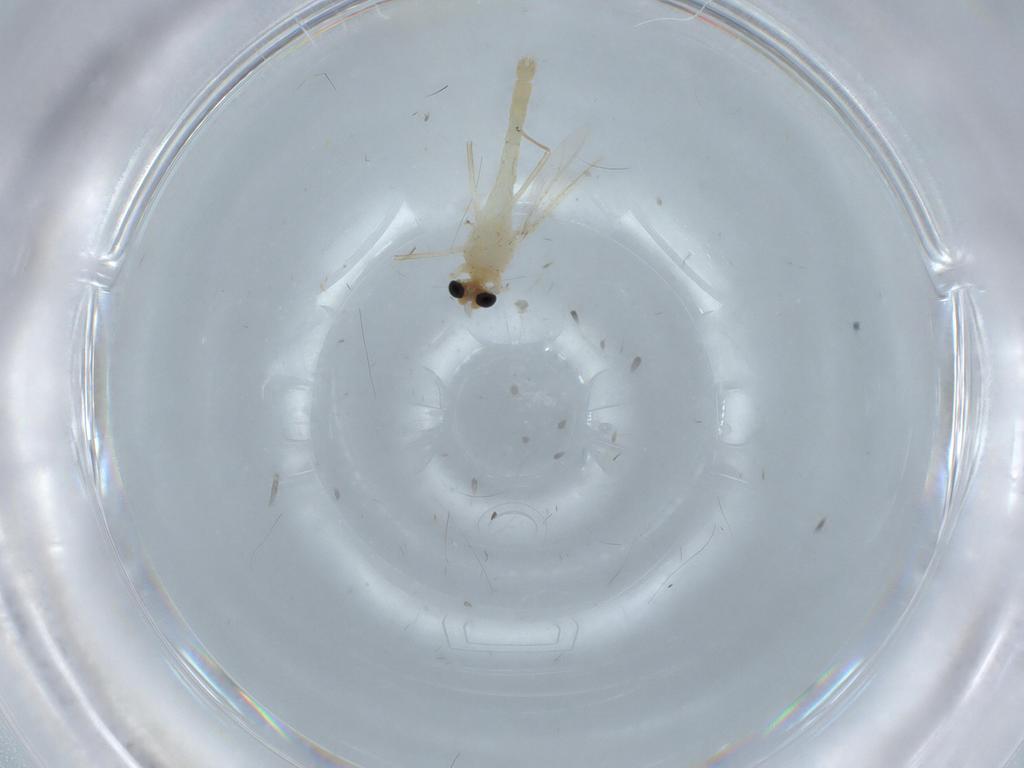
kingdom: Animalia
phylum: Arthropoda
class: Insecta
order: Diptera
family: Chironomidae
